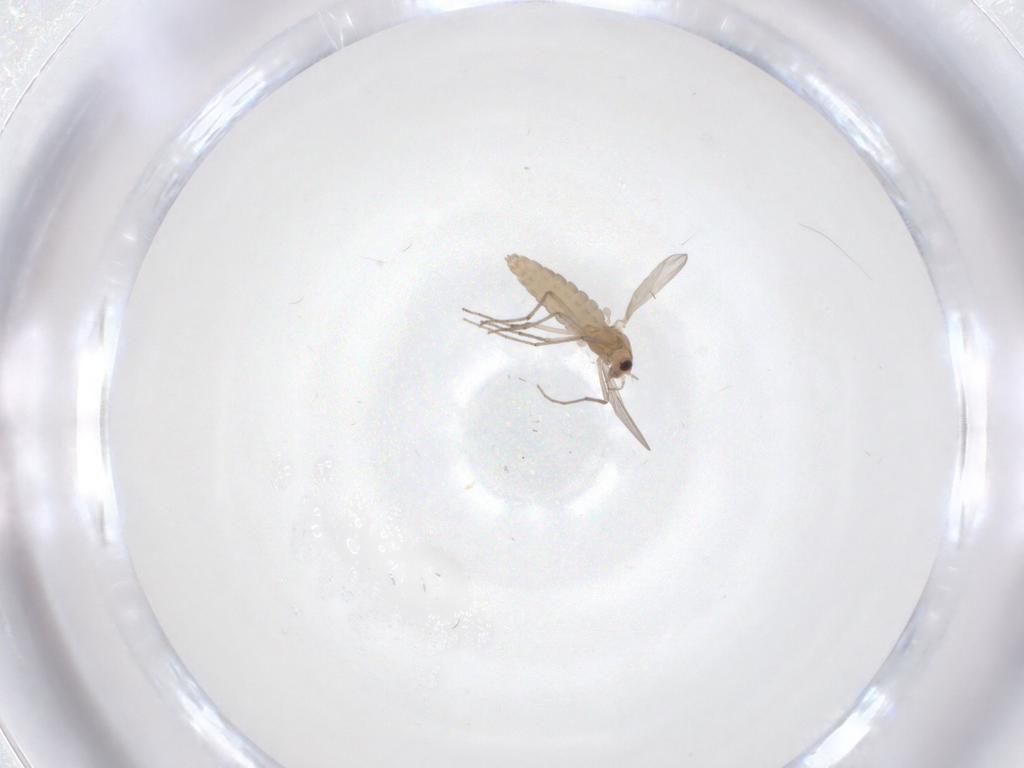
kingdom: Animalia
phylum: Arthropoda
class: Insecta
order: Diptera
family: Chironomidae
